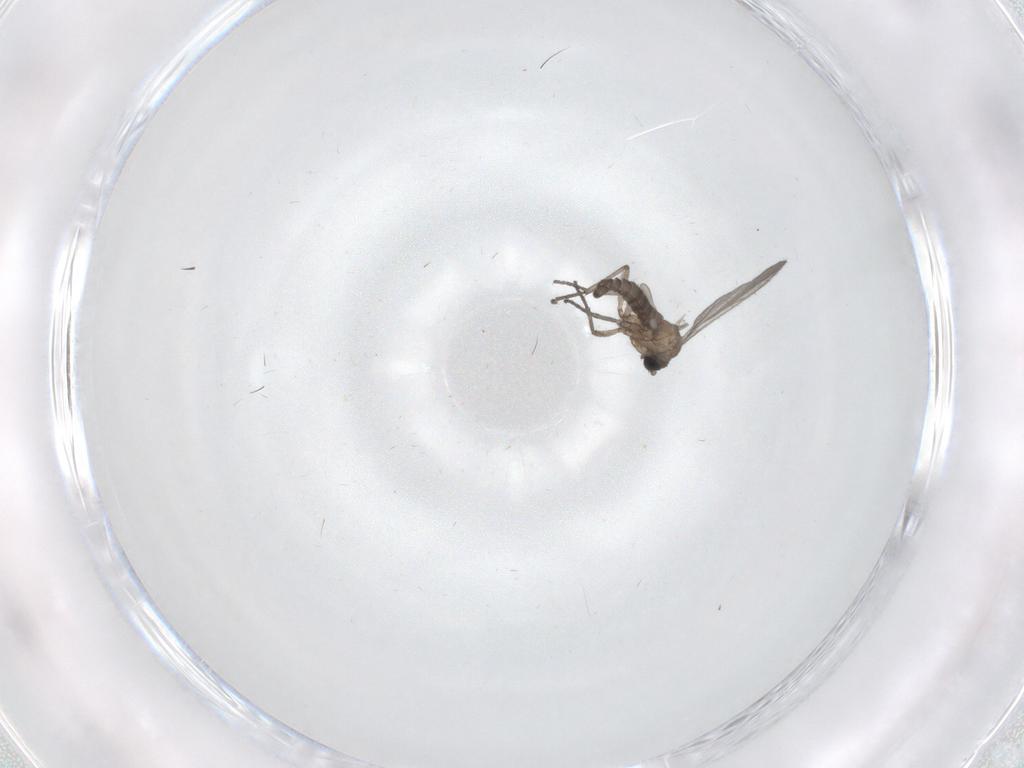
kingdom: Animalia
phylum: Arthropoda
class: Insecta
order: Diptera
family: Sciaridae
